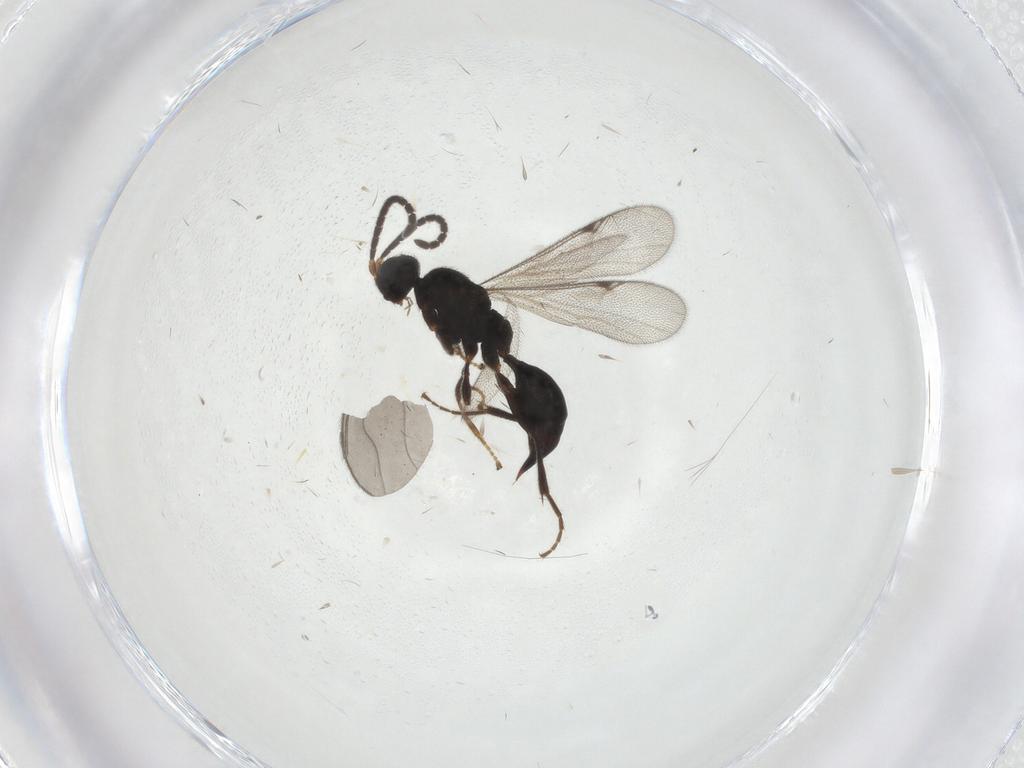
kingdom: Animalia
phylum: Arthropoda
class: Insecta
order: Hymenoptera
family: Proctotrupidae
